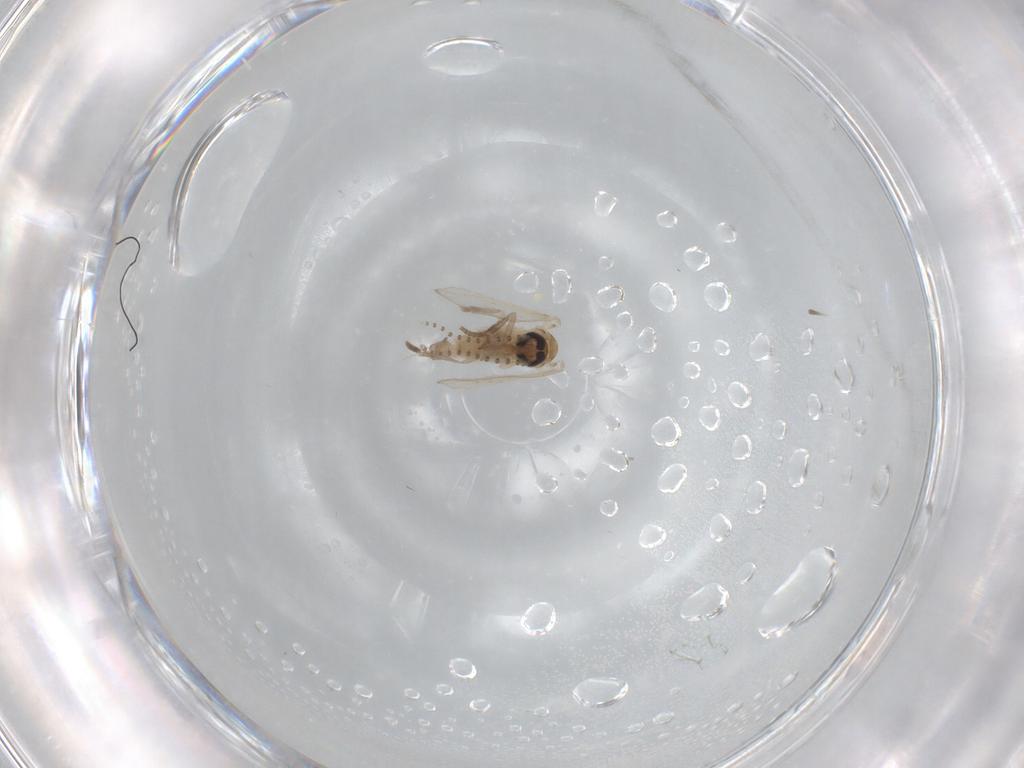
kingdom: Animalia
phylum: Arthropoda
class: Insecta
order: Diptera
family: Psychodidae
